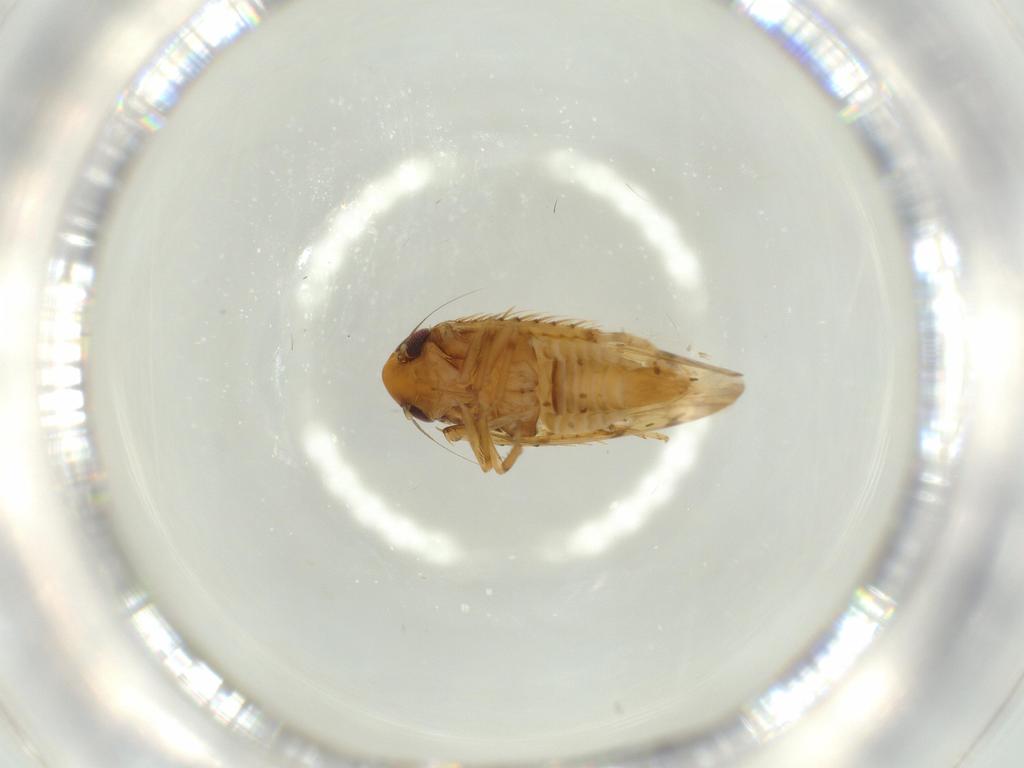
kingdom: Animalia
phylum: Arthropoda
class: Insecta
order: Hemiptera
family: Cicadellidae
